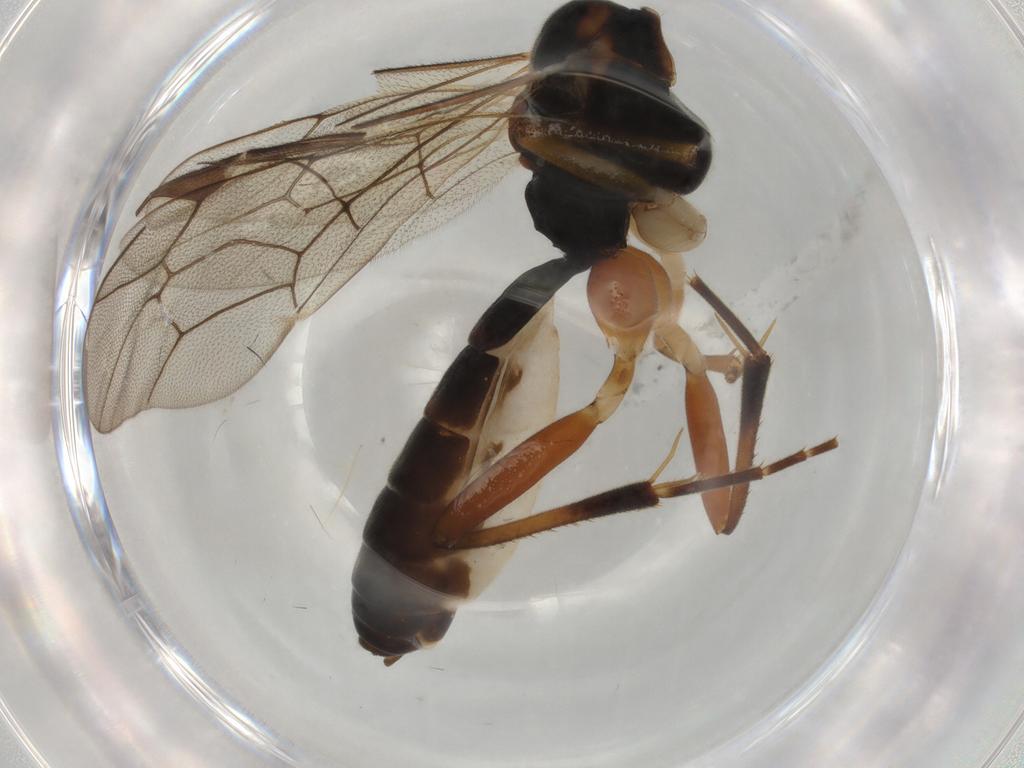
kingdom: Animalia
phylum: Arthropoda
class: Insecta
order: Hymenoptera
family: Ichneumonidae
